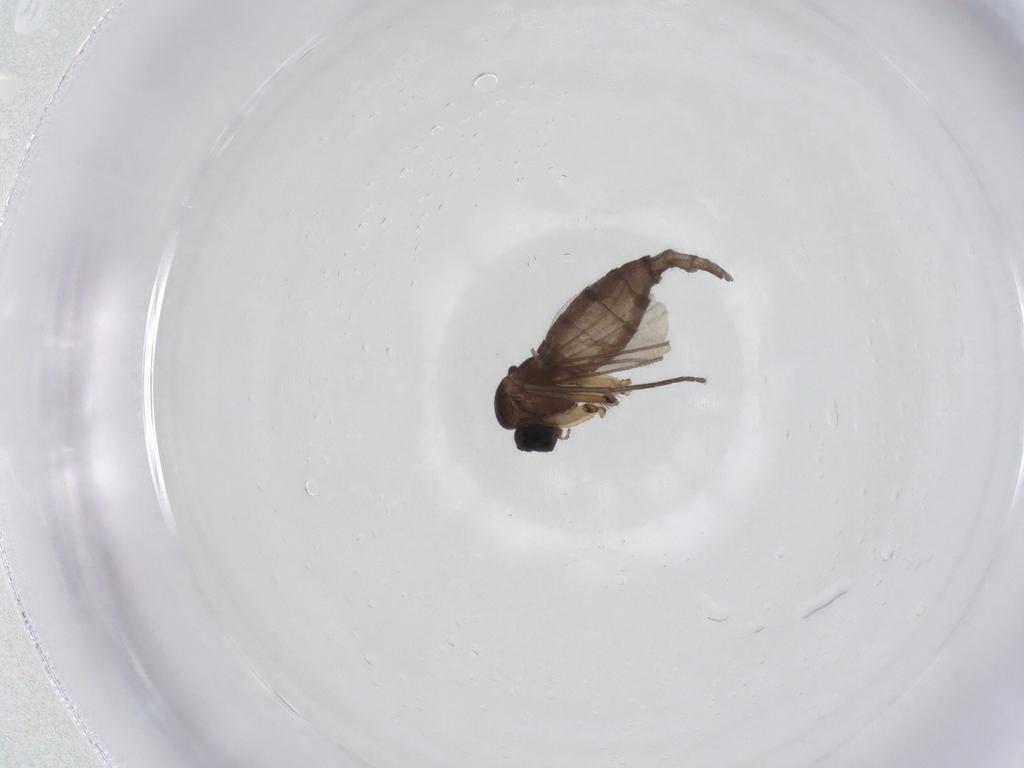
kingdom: Animalia
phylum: Arthropoda
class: Insecta
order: Diptera
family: Sciaridae
